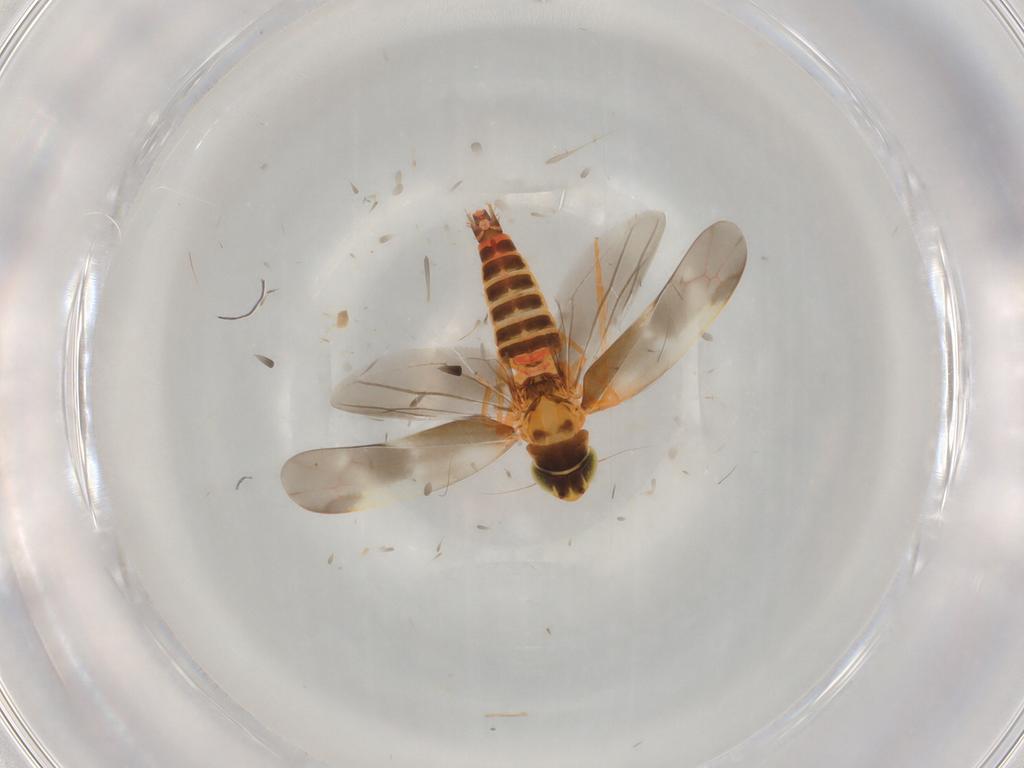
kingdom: Animalia
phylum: Arthropoda
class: Insecta
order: Hemiptera
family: Cicadellidae
